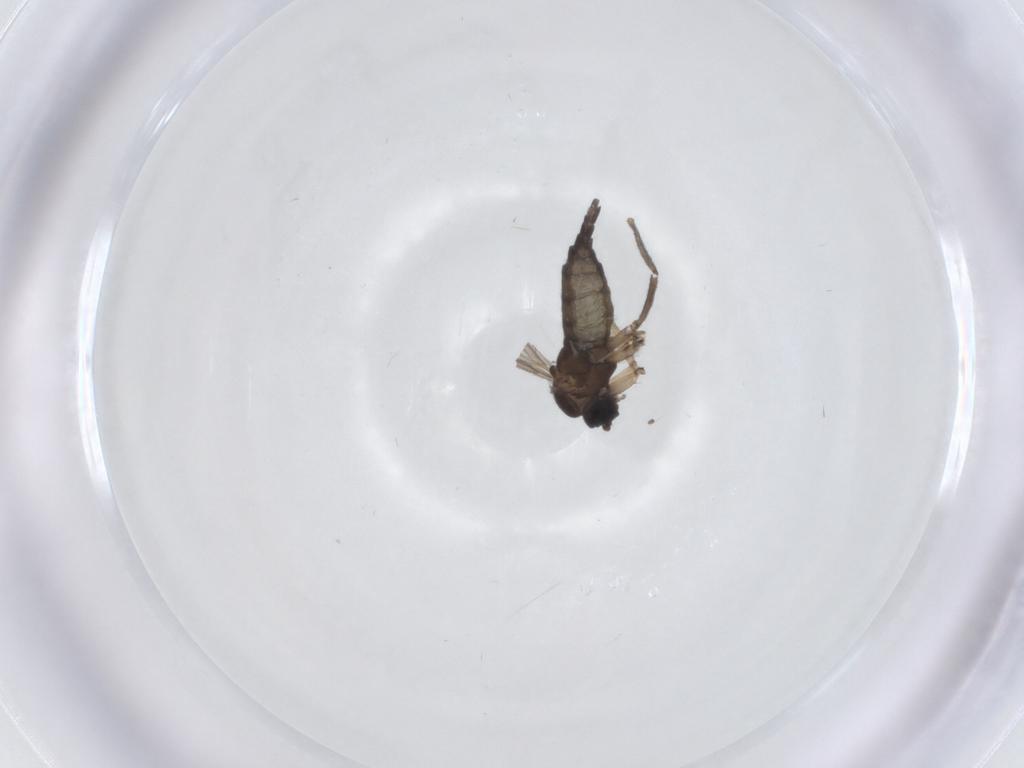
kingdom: Animalia
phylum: Arthropoda
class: Insecta
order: Diptera
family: Sciaridae
